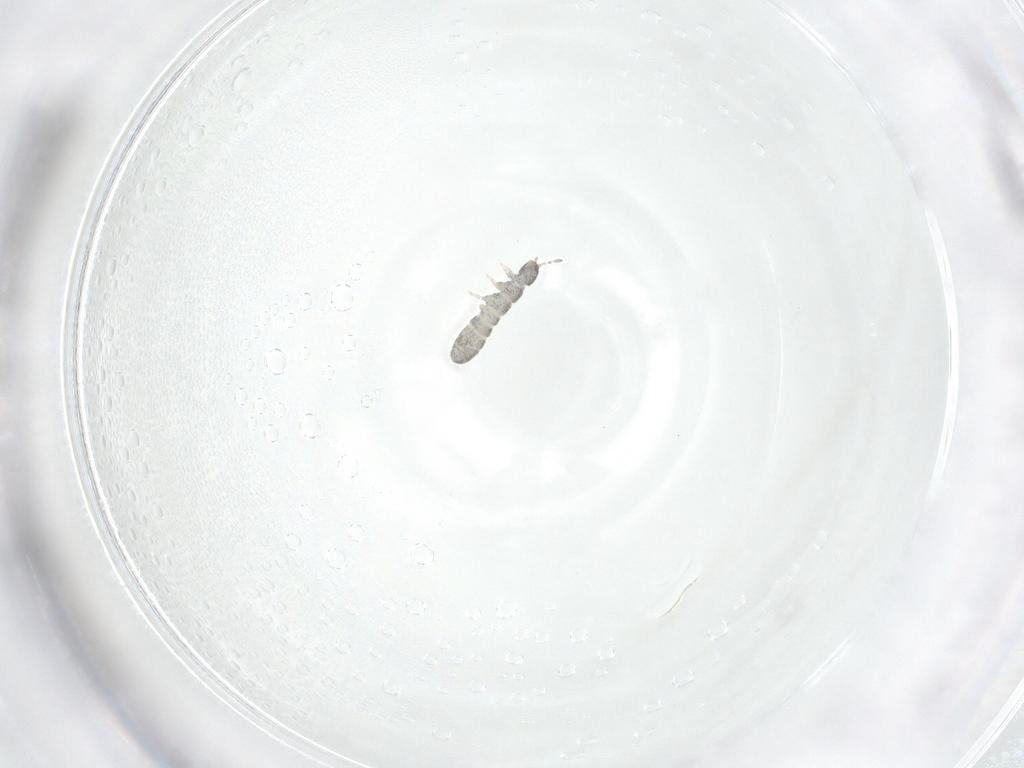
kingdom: Animalia
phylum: Arthropoda
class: Collembola
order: Entomobryomorpha
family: Isotomidae
